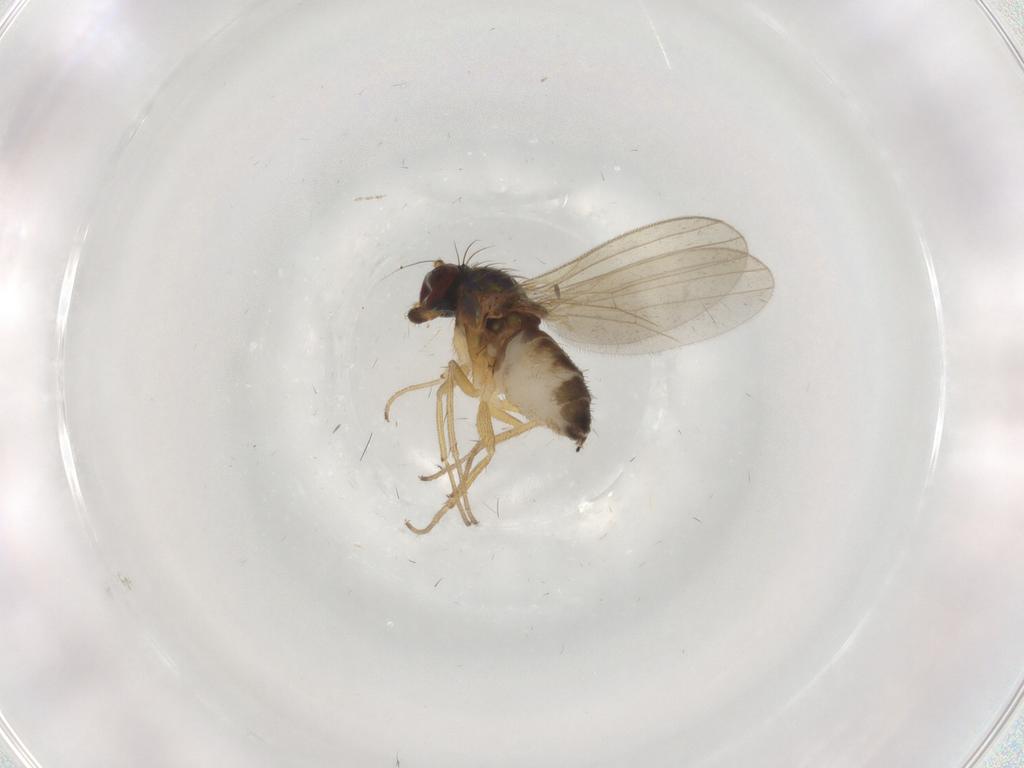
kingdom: Animalia
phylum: Arthropoda
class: Insecta
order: Diptera
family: Dolichopodidae
